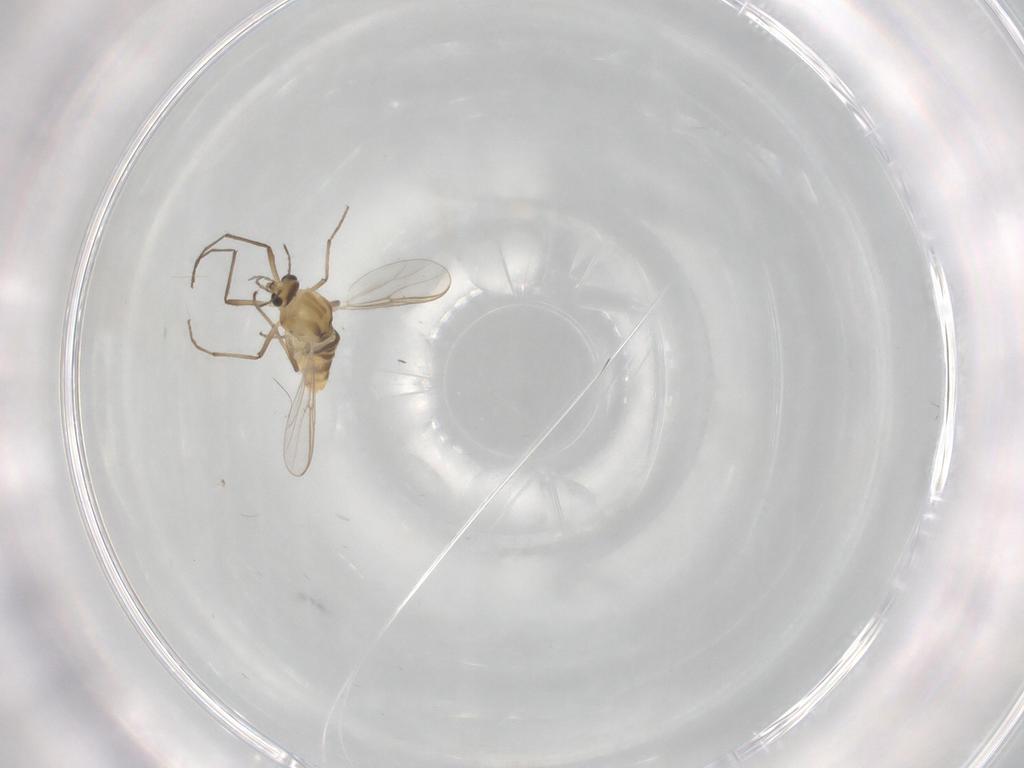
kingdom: Animalia
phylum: Arthropoda
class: Insecta
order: Diptera
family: Chironomidae
